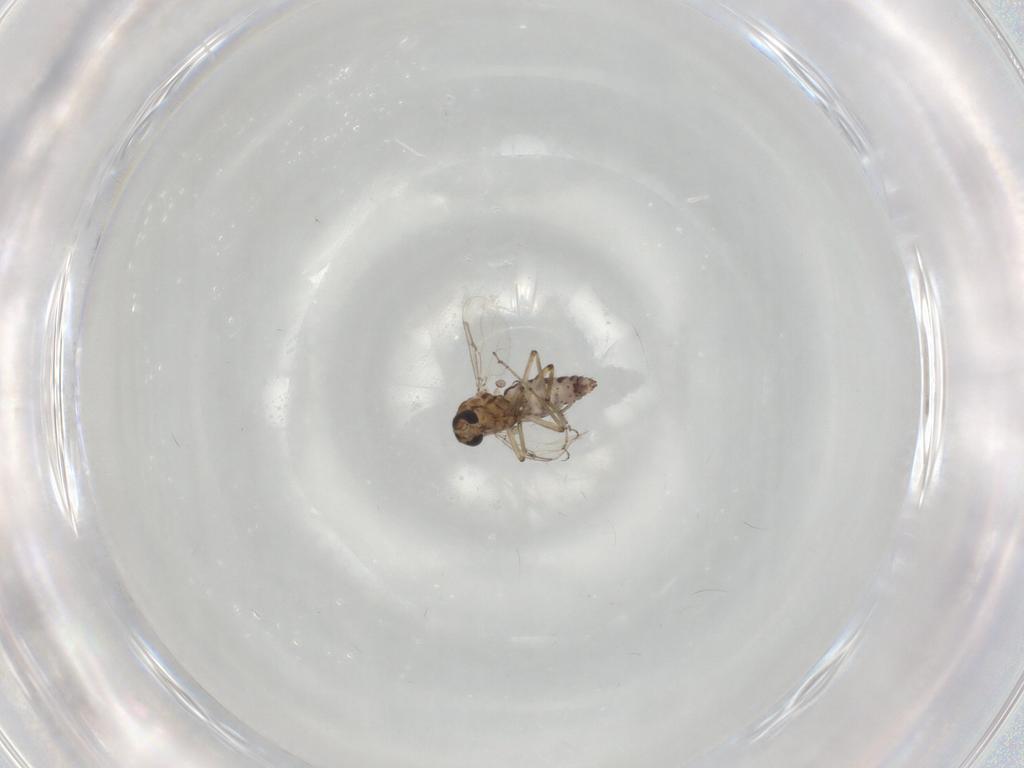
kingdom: Animalia
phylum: Arthropoda
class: Insecta
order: Diptera
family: Ceratopogonidae
